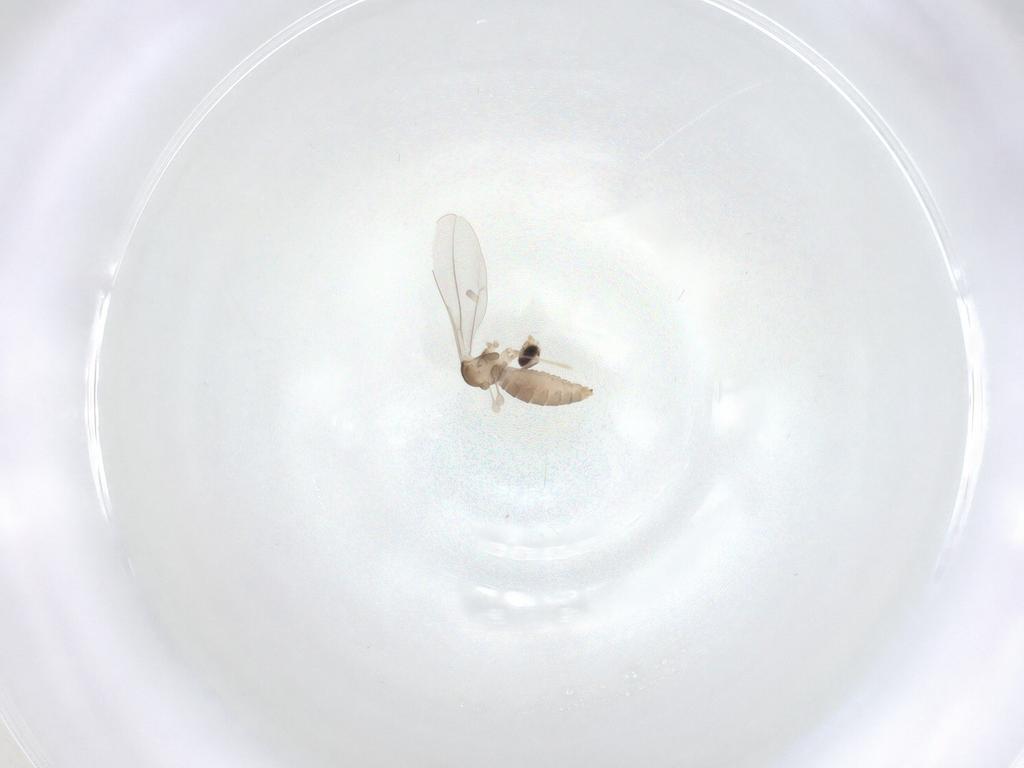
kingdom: Animalia
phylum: Arthropoda
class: Insecta
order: Diptera
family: Cecidomyiidae
